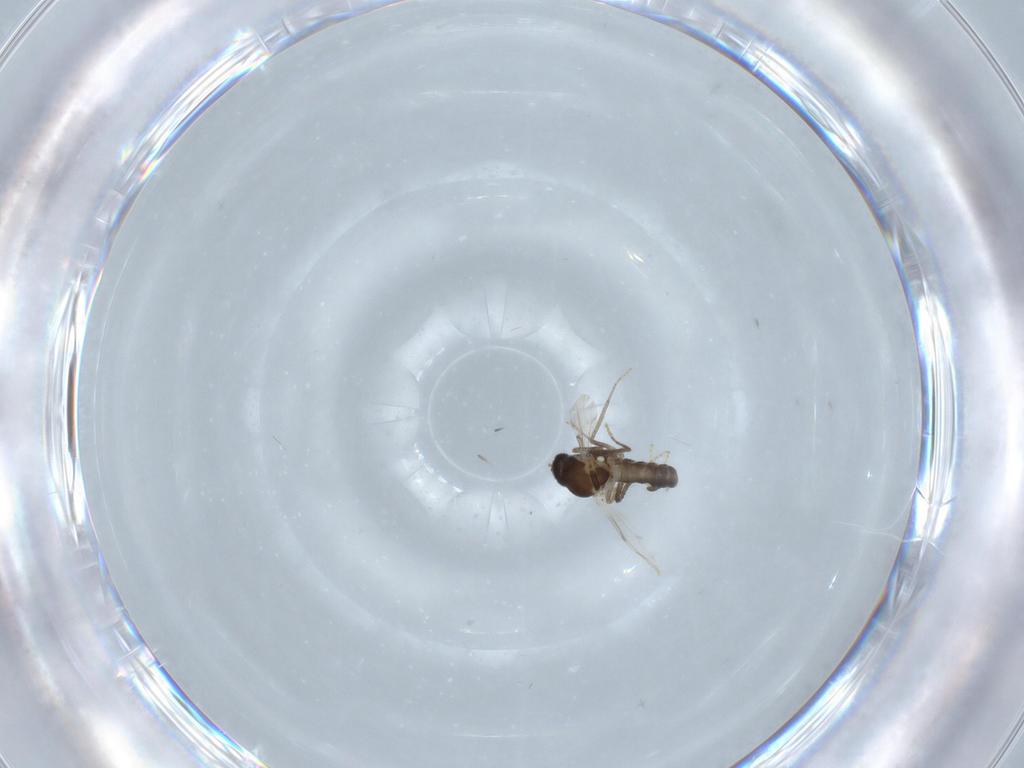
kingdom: Animalia
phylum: Arthropoda
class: Insecta
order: Diptera
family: Ceratopogonidae
